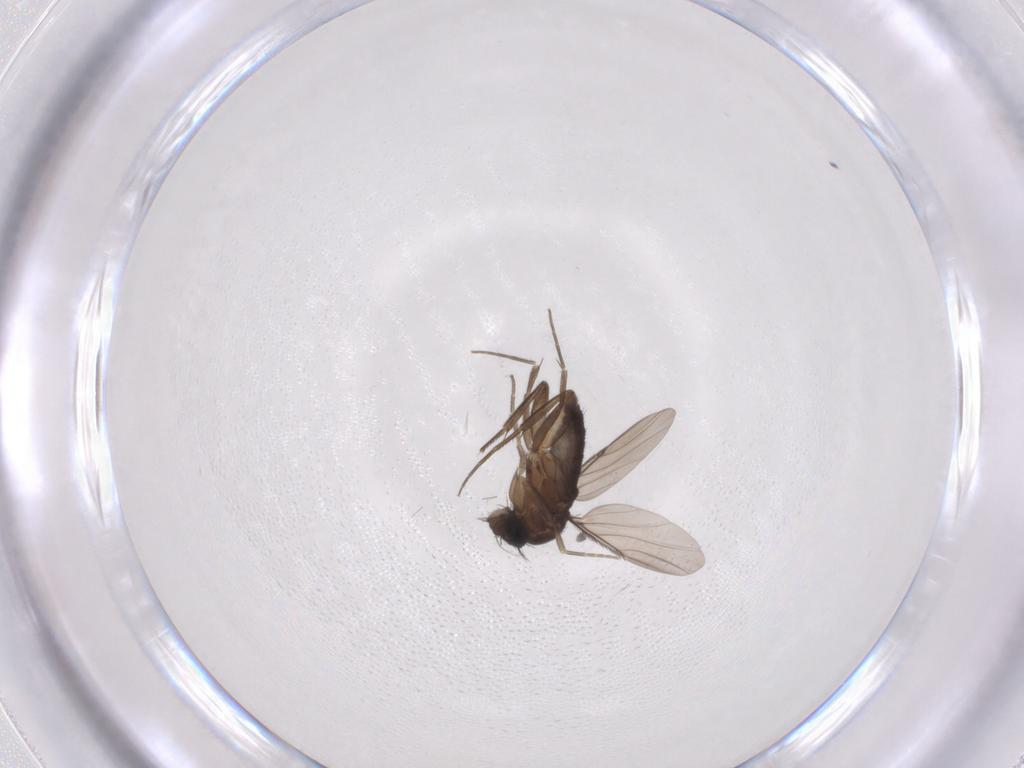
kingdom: Animalia
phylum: Arthropoda
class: Insecta
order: Diptera
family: Phoridae
